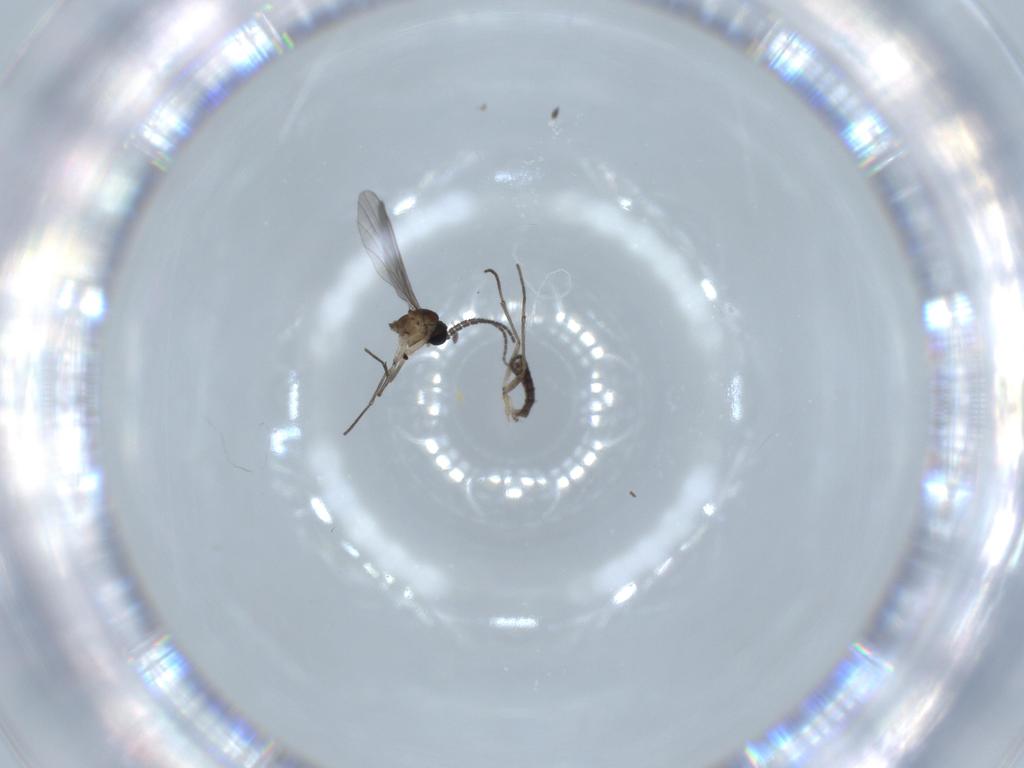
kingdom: Animalia
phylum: Arthropoda
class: Insecta
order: Diptera
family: Sciaridae
